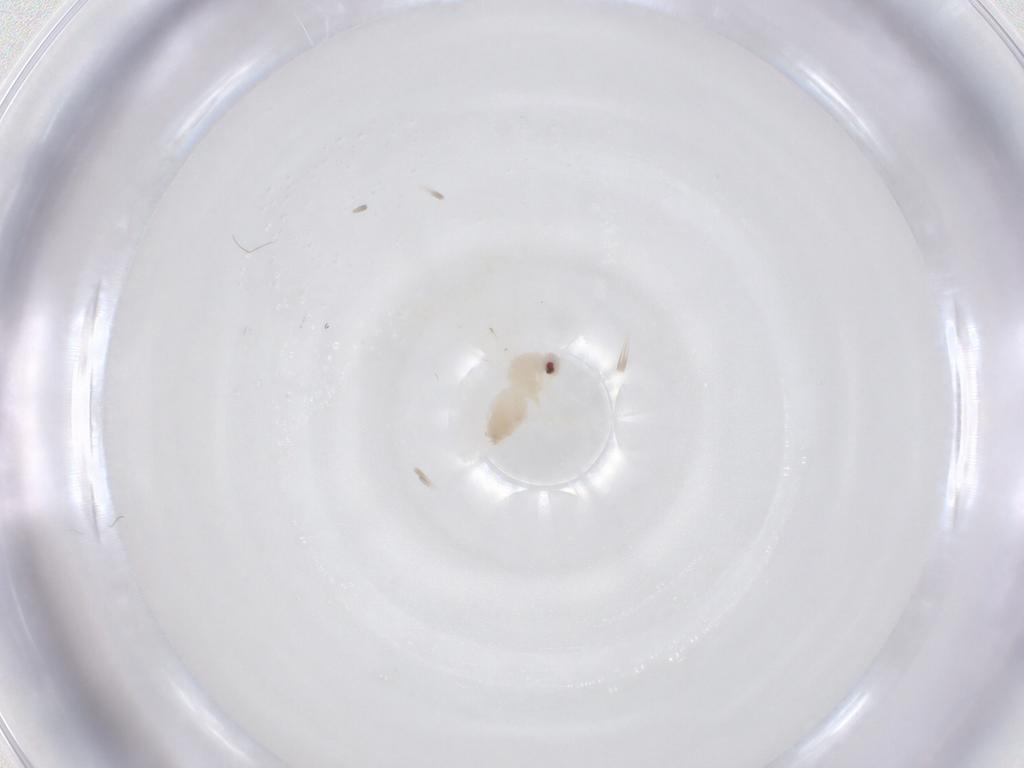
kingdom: Animalia
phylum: Arthropoda
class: Insecta
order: Hemiptera
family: Aleyrodidae
